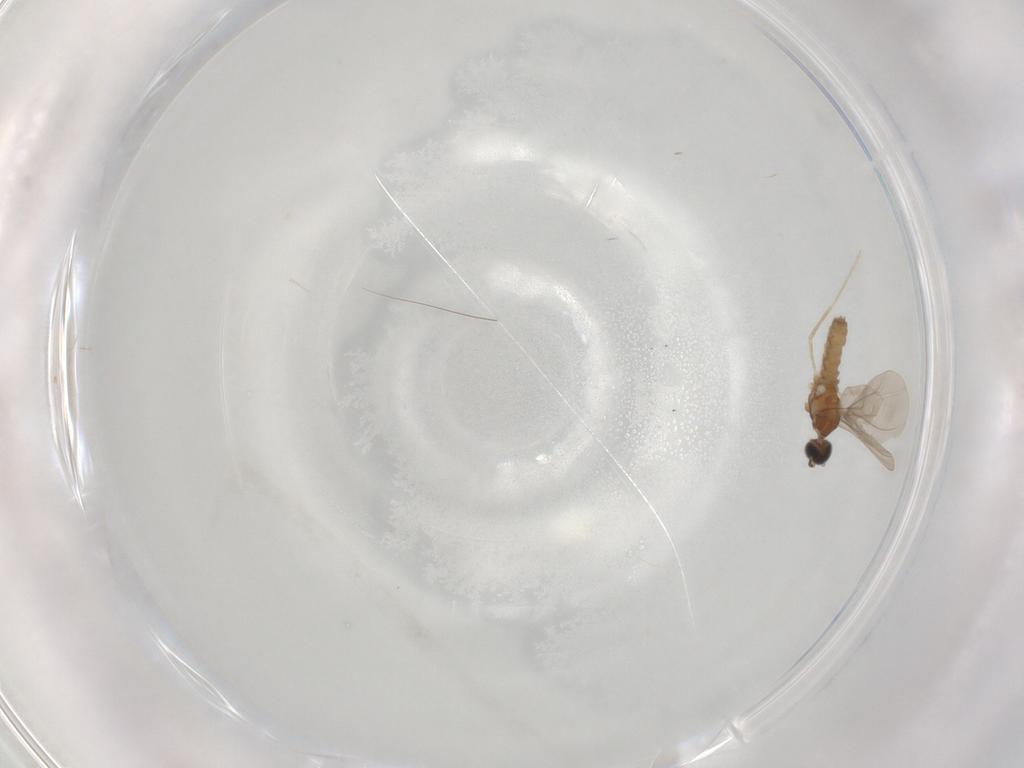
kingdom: Animalia
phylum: Arthropoda
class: Insecta
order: Diptera
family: Cecidomyiidae
